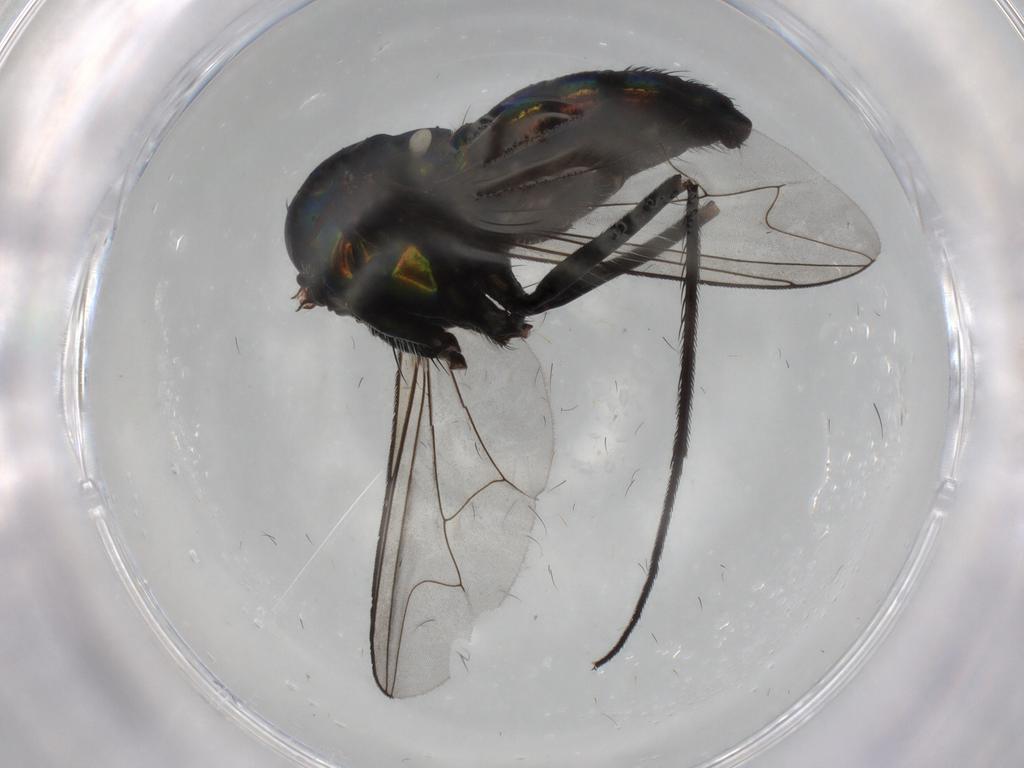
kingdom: Animalia
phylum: Arthropoda
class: Insecta
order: Diptera
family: Dolichopodidae
